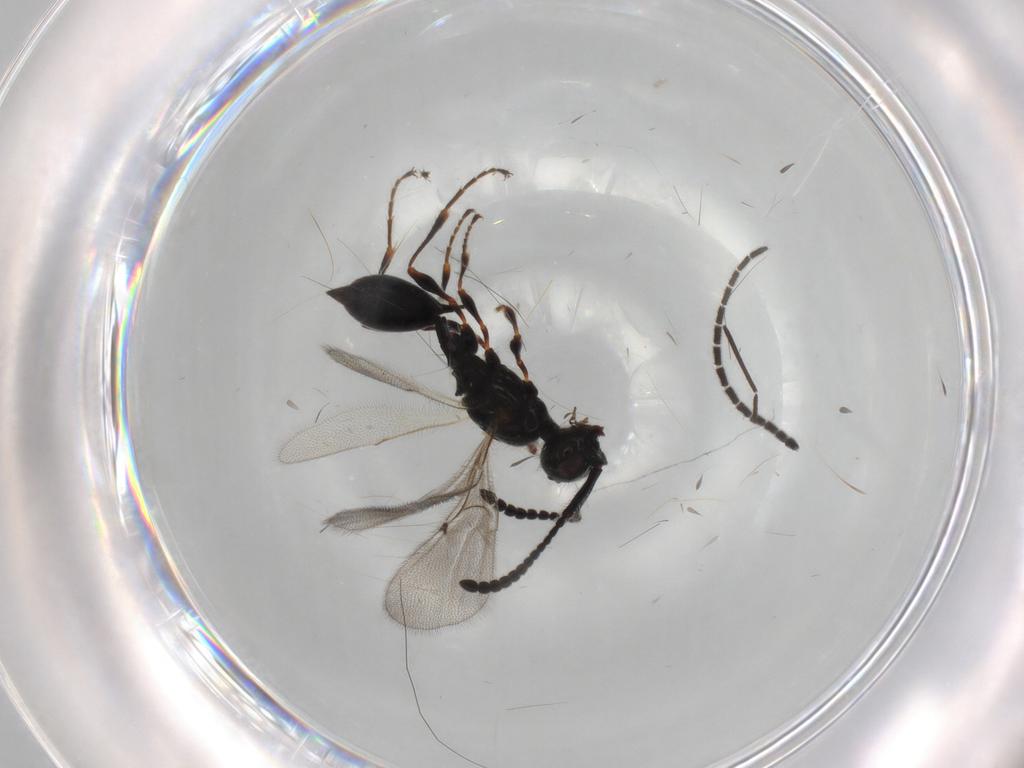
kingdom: Animalia
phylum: Arthropoda
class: Insecta
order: Hymenoptera
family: Diapriidae
